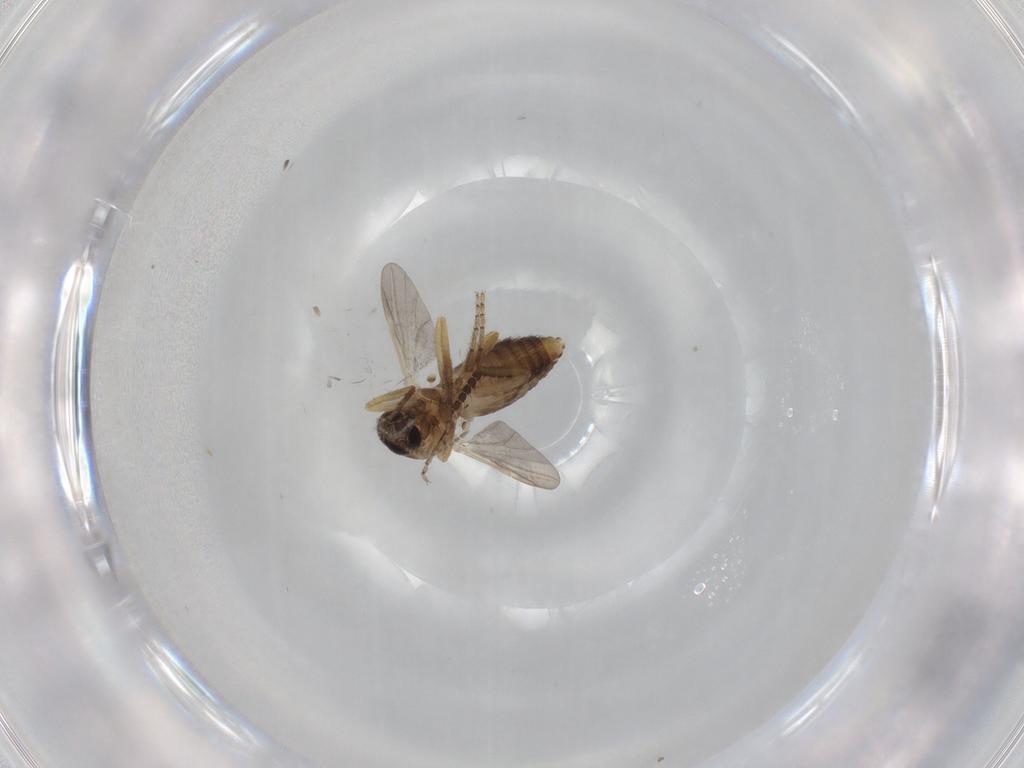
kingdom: Animalia
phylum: Arthropoda
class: Insecta
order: Diptera
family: Ceratopogonidae
